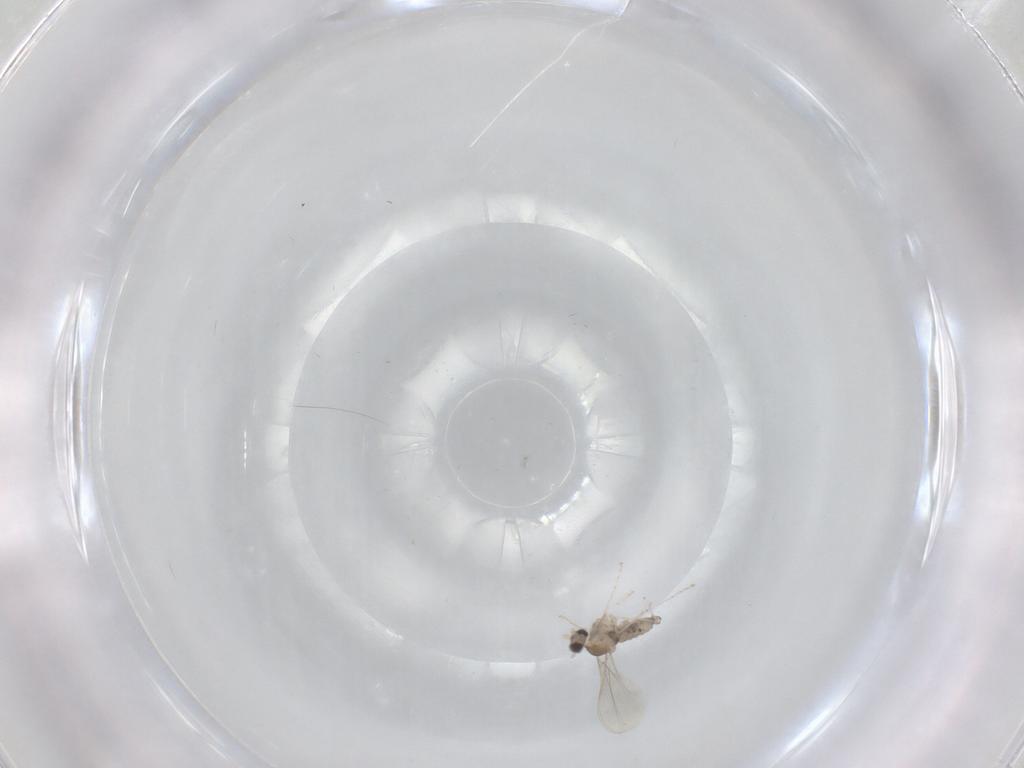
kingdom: Animalia
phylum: Arthropoda
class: Insecta
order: Diptera
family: Cecidomyiidae
